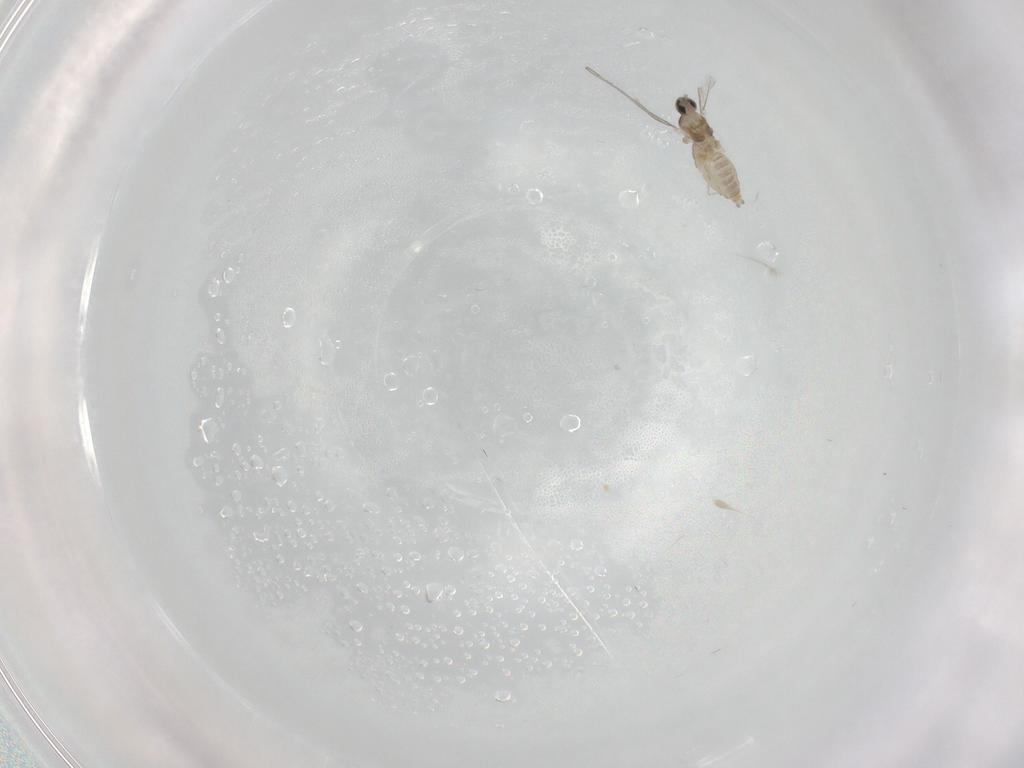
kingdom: Animalia
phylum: Arthropoda
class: Insecta
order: Diptera
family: Cecidomyiidae
